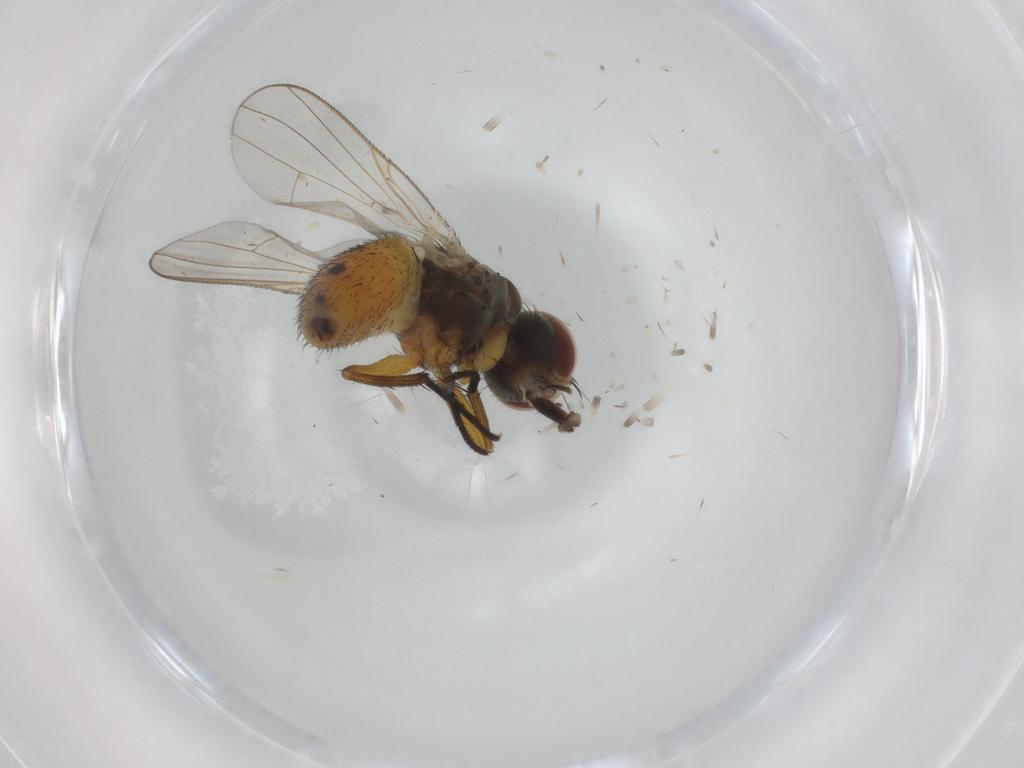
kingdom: Animalia
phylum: Arthropoda
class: Insecta
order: Diptera
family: Muscidae
